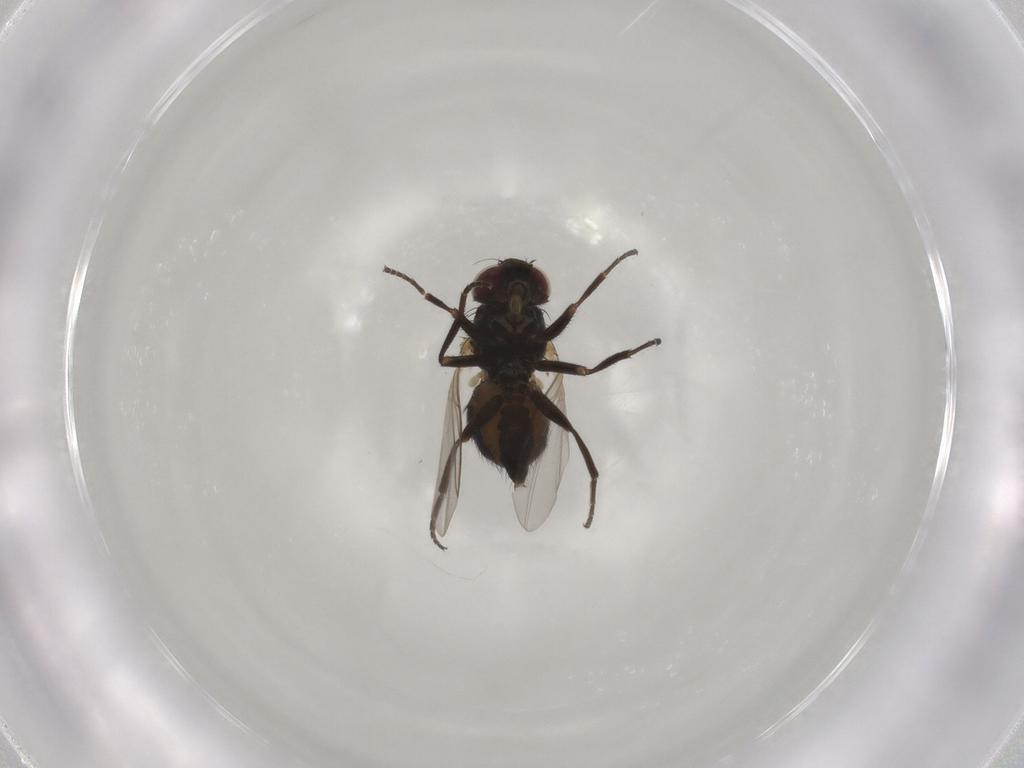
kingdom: Animalia
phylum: Arthropoda
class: Insecta
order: Diptera
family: Agromyzidae
